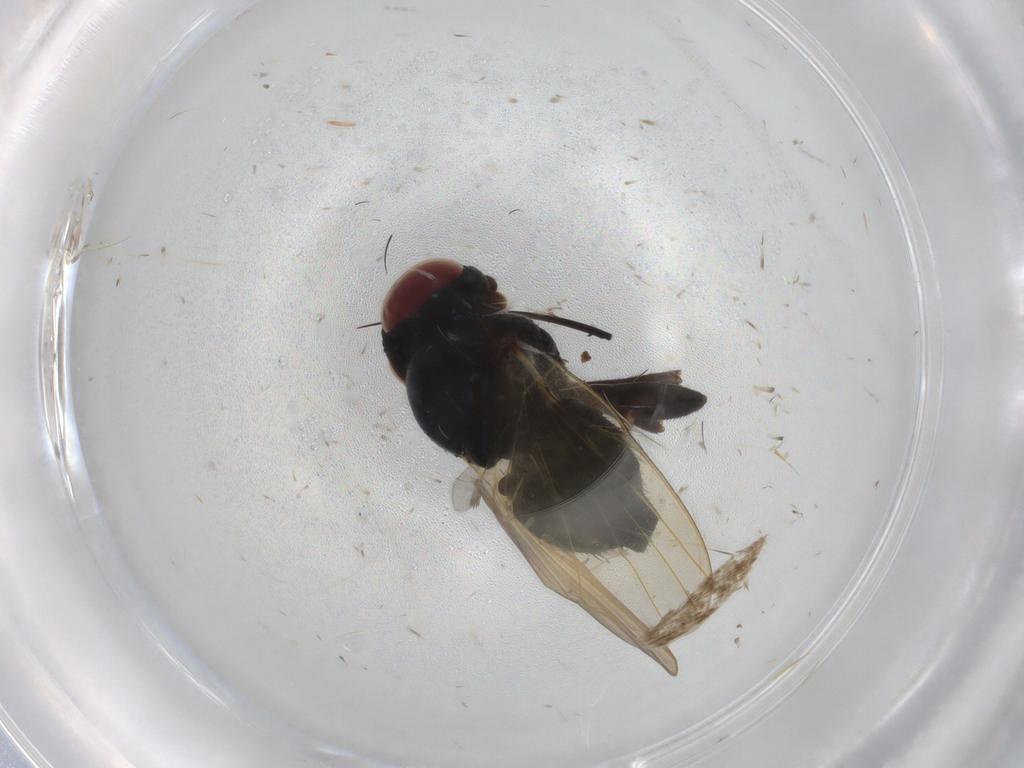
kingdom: Animalia
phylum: Arthropoda
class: Insecta
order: Diptera
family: Lonchaeidae
